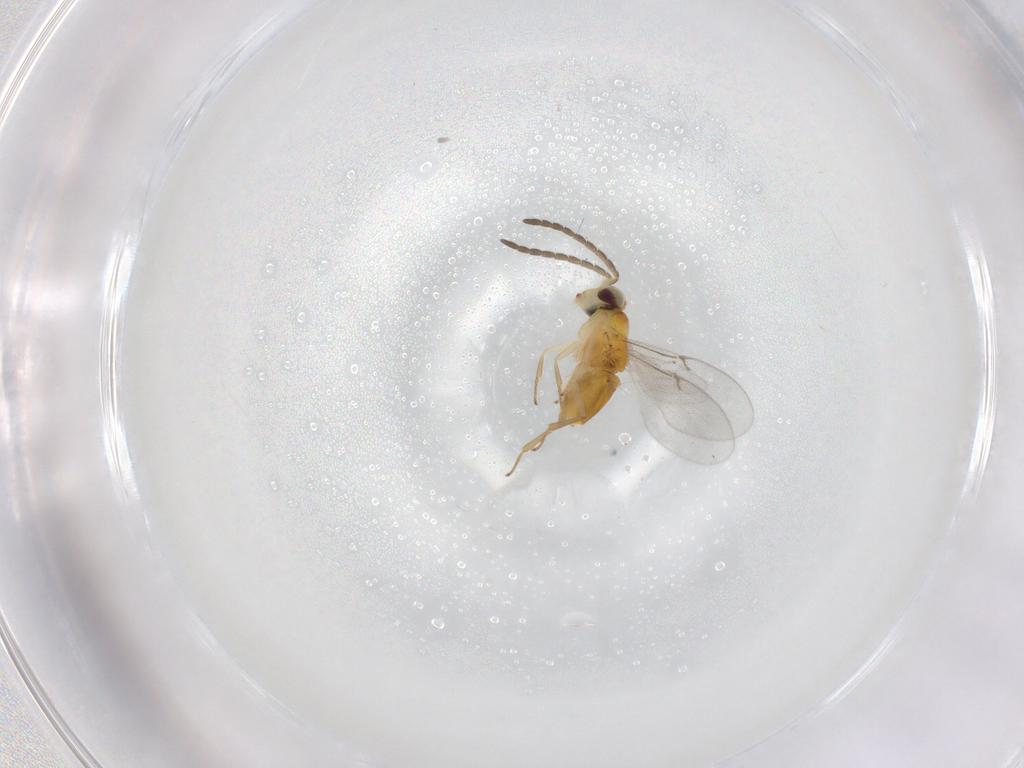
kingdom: Animalia
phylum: Arthropoda
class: Insecta
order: Hymenoptera
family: Encyrtidae
